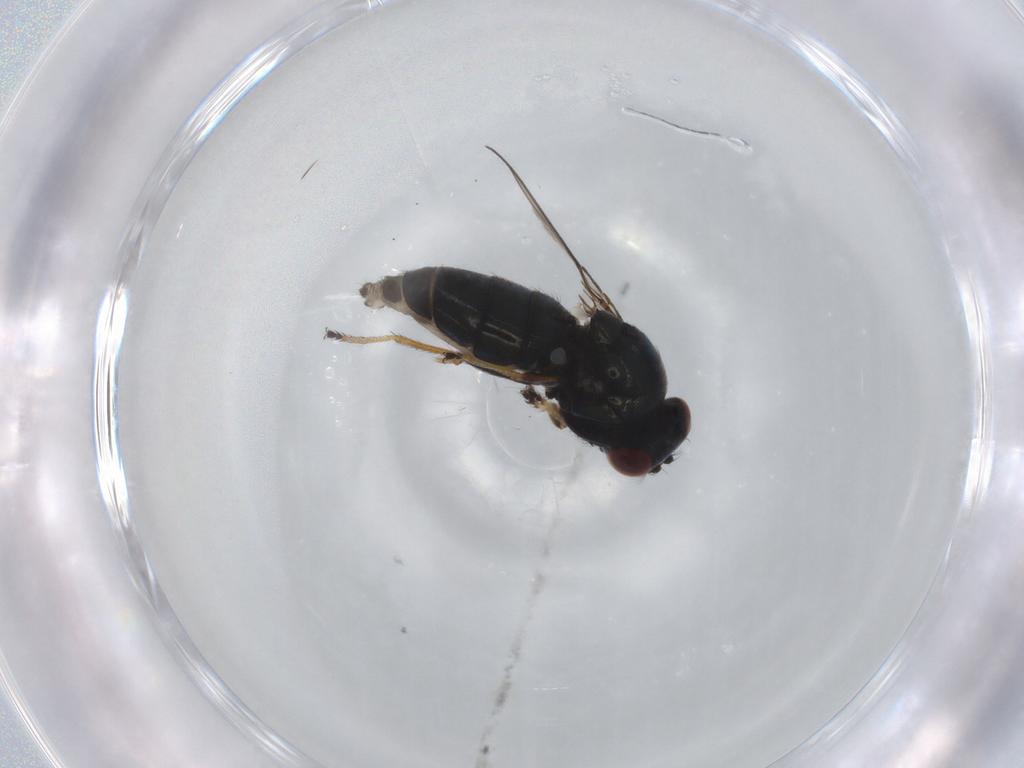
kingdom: Animalia
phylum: Arthropoda
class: Insecta
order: Diptera
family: Ephydridae
